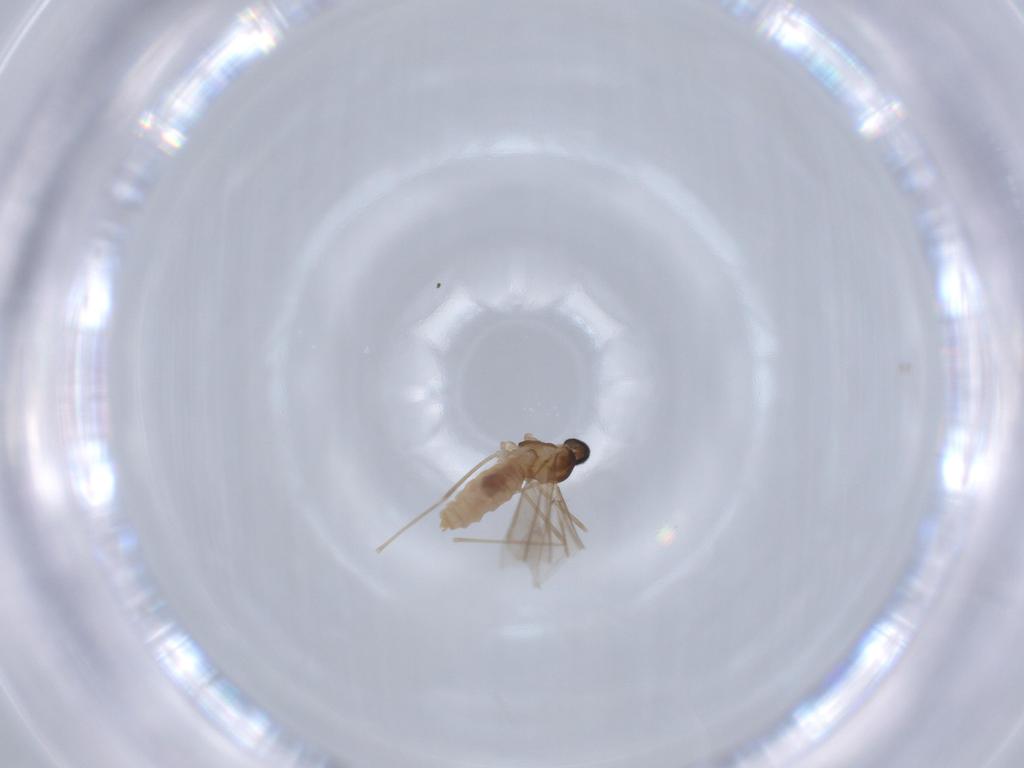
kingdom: Animalia
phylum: Arthropoda
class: Insecta
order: Diptera
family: Cecidomyiidae
